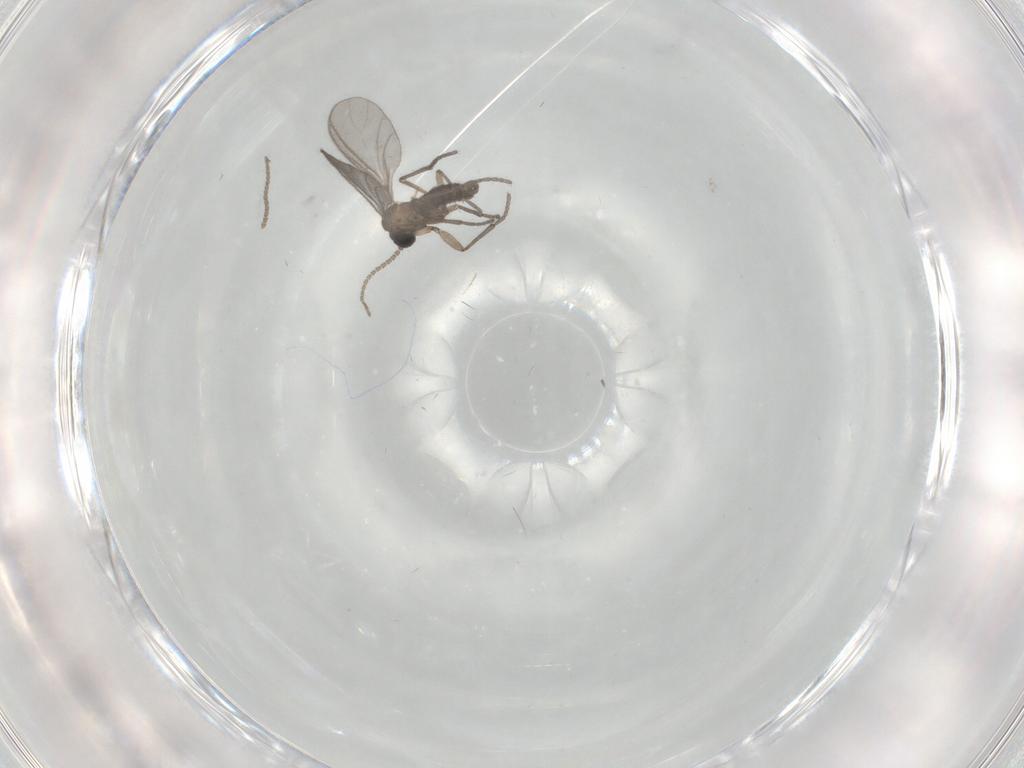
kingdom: Animalia
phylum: Arthropoda
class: Insecta
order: Diptera
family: Sciaridae
